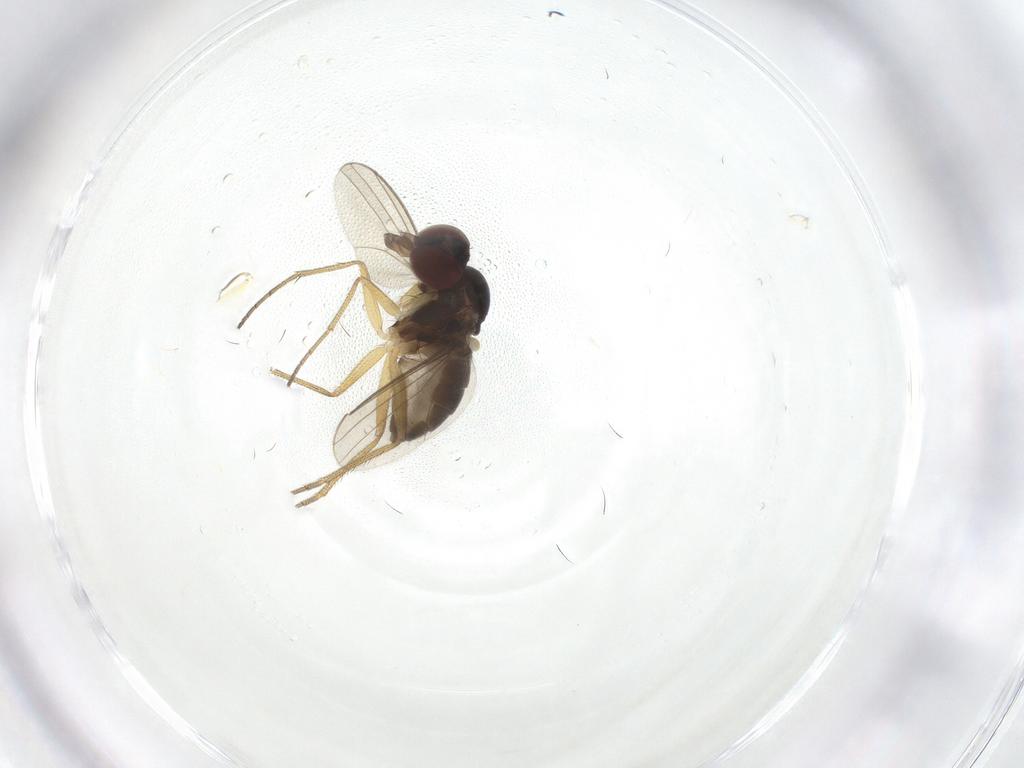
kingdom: Animalia
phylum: Arthropoda
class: Insecta
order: Diptera
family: Dolichopodidae
